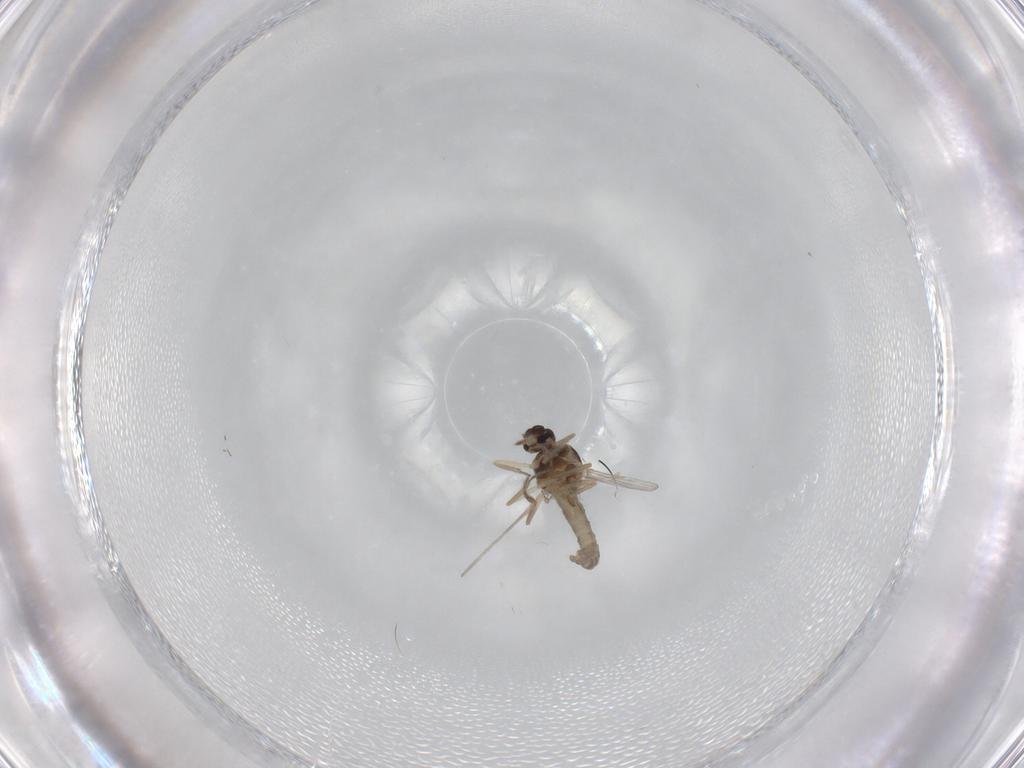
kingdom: Animalia
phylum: Arthropoda
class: Insecta
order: Diptera
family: Ceratopogonidae
